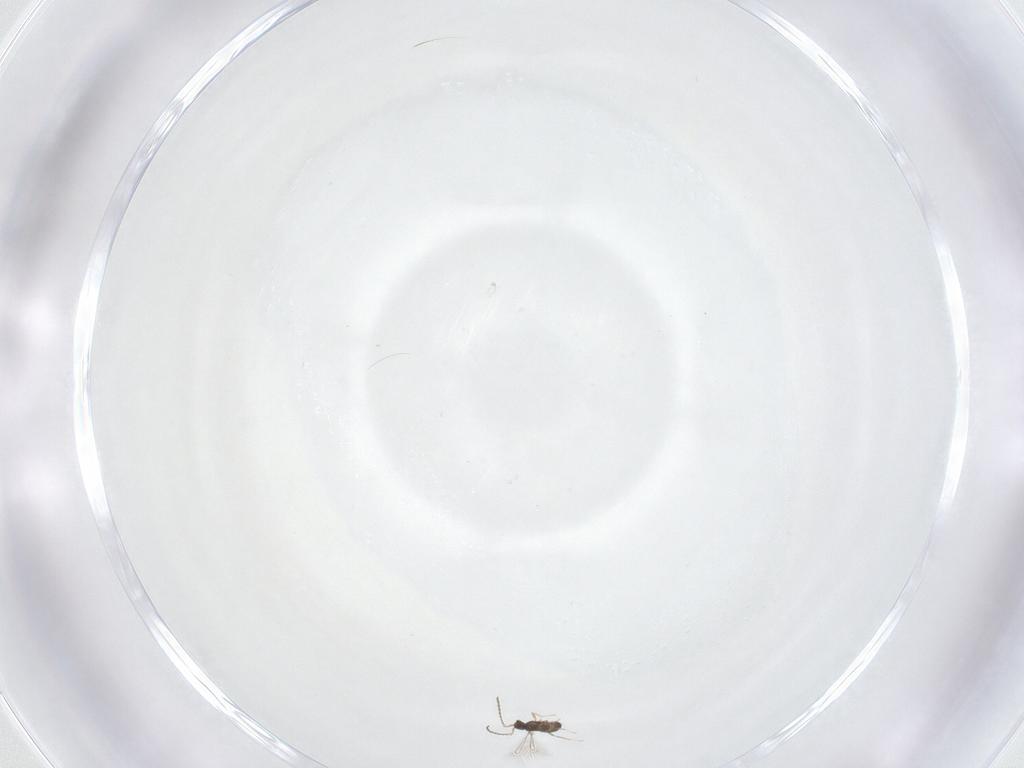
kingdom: Animalia
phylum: Arthropoda
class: Insecta
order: Hymenoptera
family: Mymaridae
